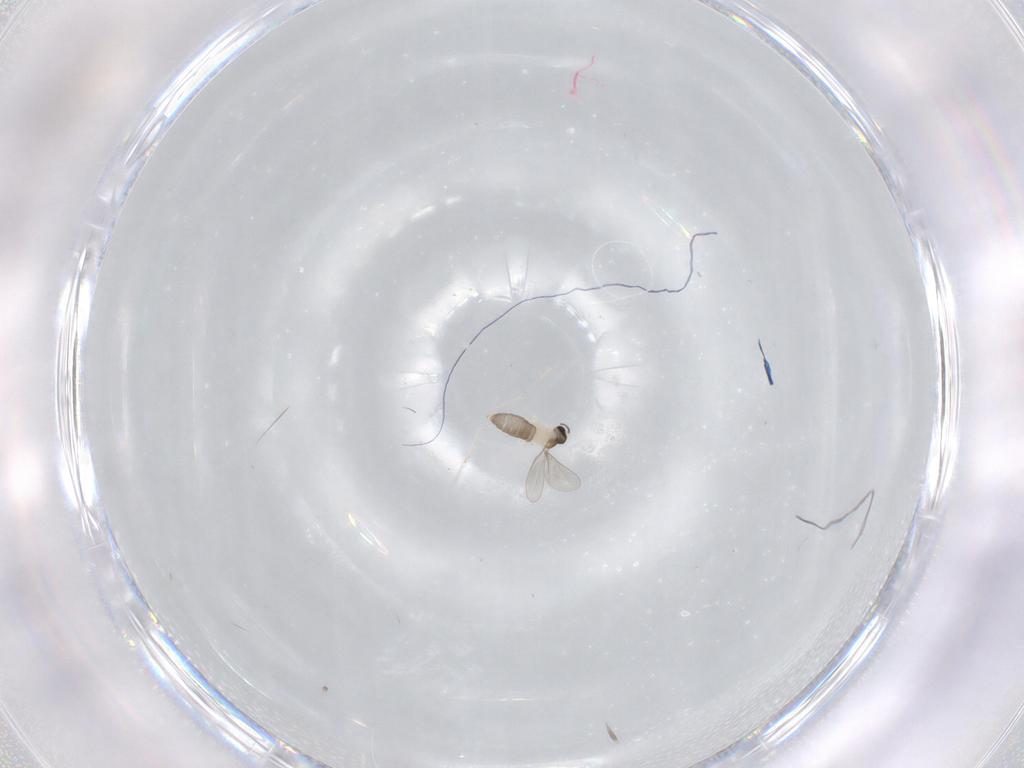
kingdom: Animalia
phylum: Arthropoda
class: Insecta
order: Diptera
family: Cecidomyiidae
